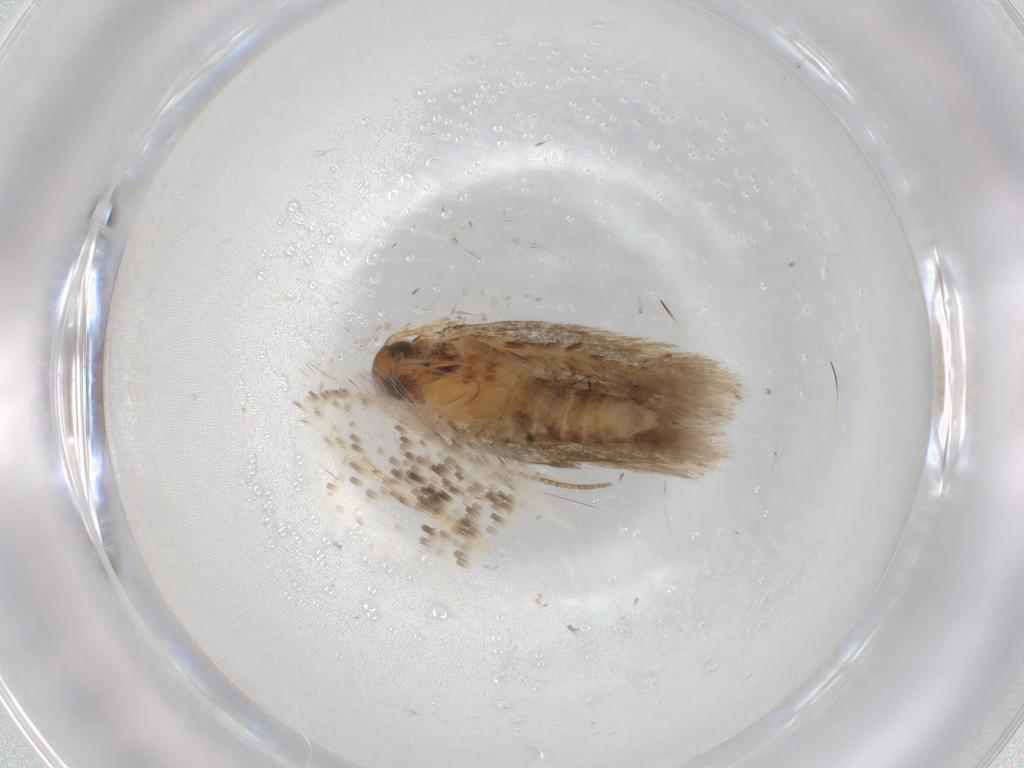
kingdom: Animalia
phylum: Arthropoda
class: Insecta
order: Lepidoptera
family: Gelechiidae
